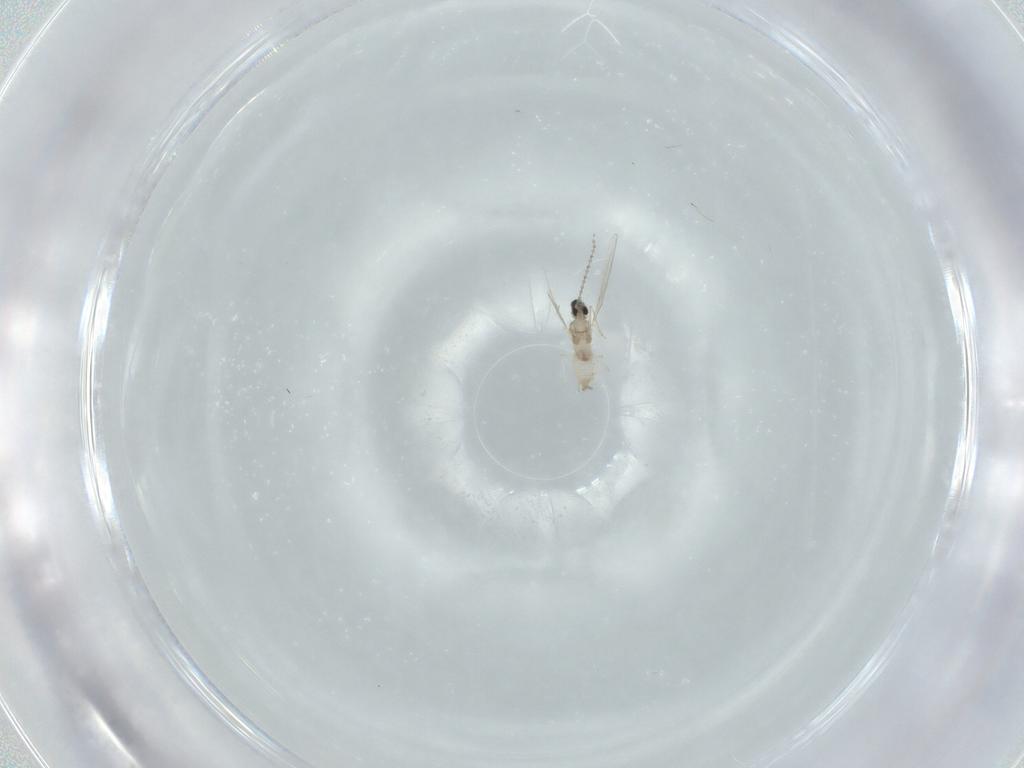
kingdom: Animalia
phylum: Arthropoda
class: Insecta
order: Diptera
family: Cecidomyiidae
